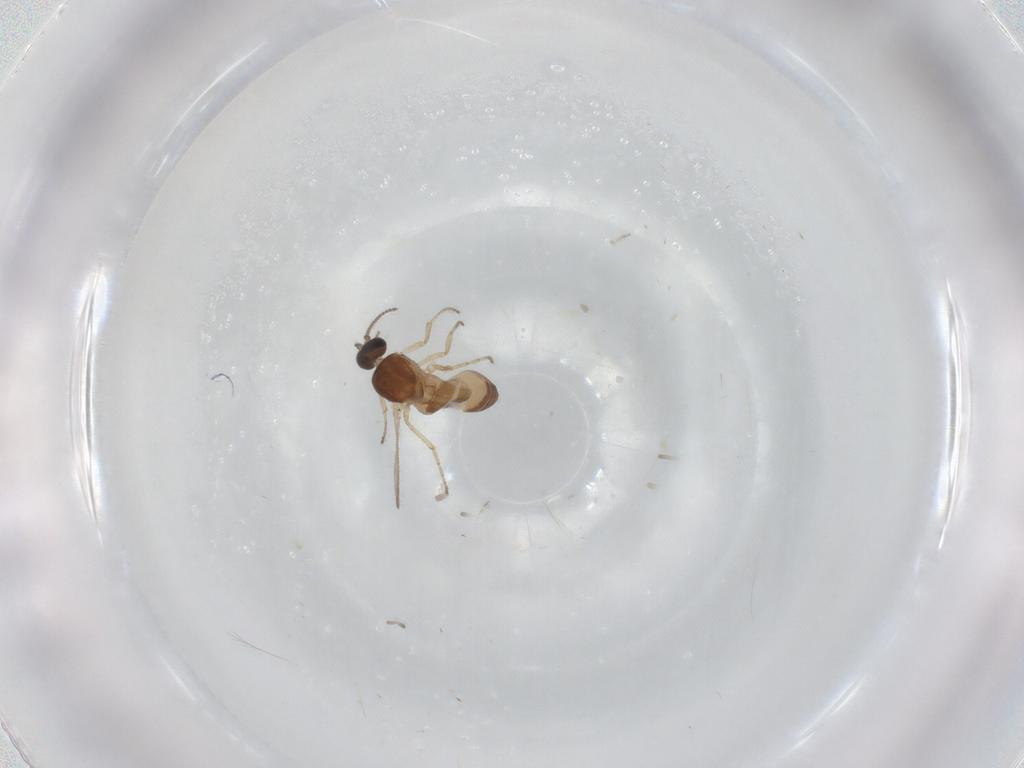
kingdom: Animalia
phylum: Arthropoda
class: Insecta
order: Diptera
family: Ceratopogonidae
